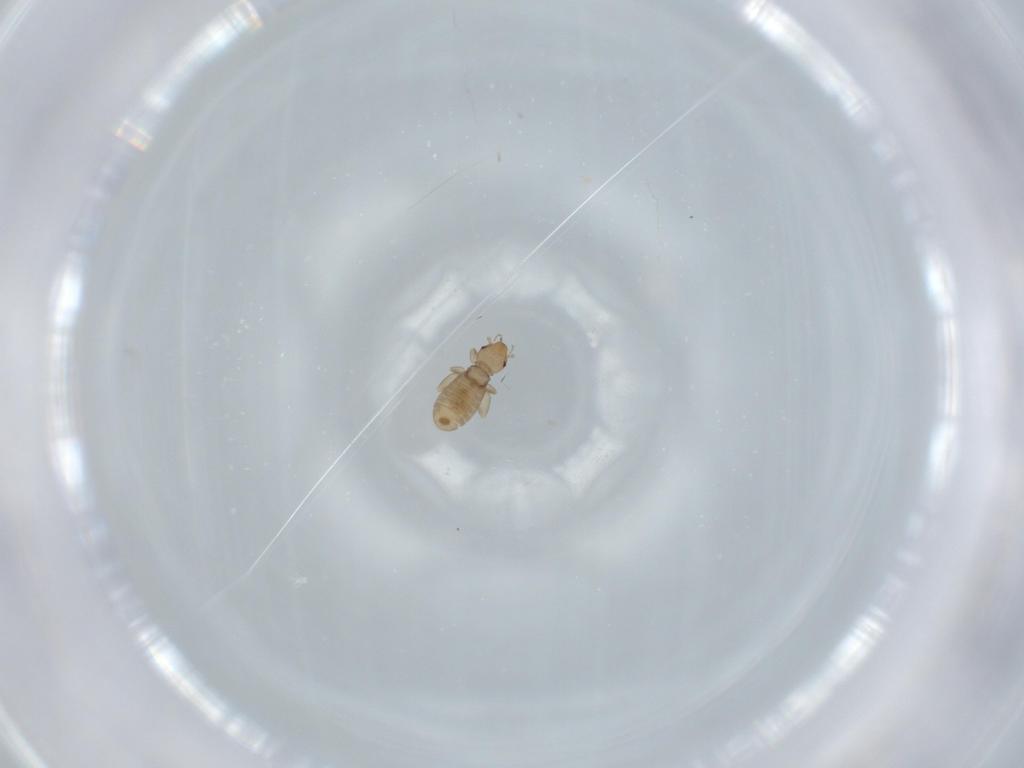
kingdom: Animalia
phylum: Arthropoda
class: Insecta
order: Psocodea
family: Liposcelididae
